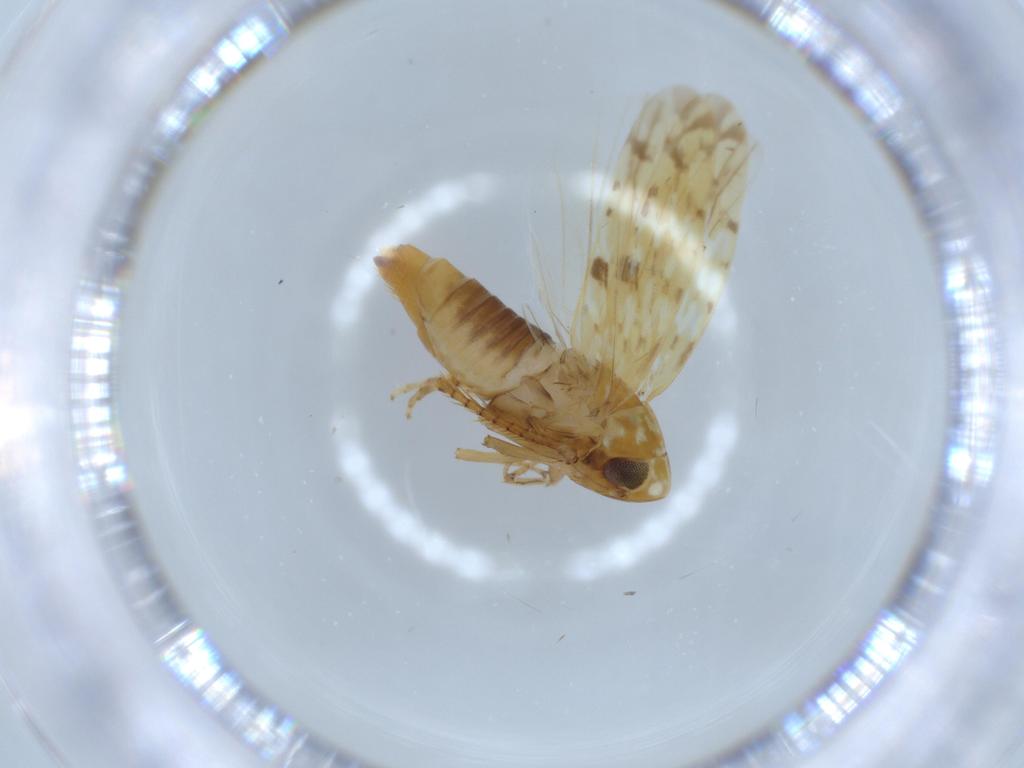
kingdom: Animalia
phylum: Arthropoda
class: Insecta
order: Hemiptera
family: Cicadellidae
